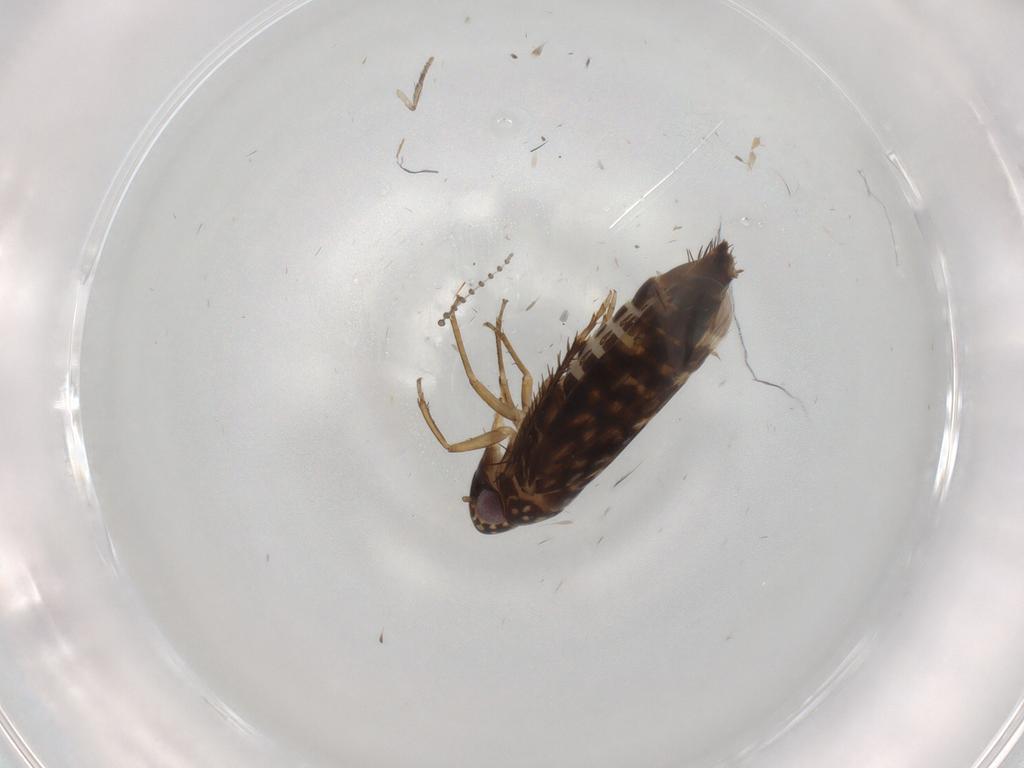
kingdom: Animalia
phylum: Arthropoda
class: Insecta
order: Hemiptera
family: Cicadellidae
